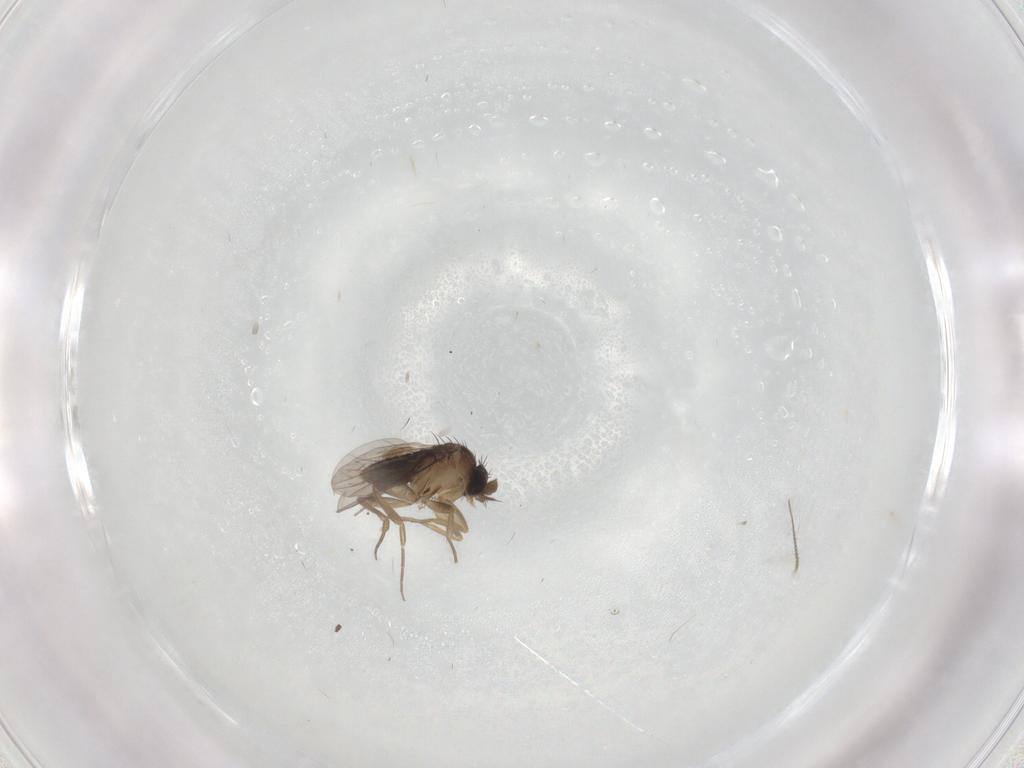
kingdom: Animalia
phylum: Arthropoda
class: Insecta
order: Diptera
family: Phoridae
